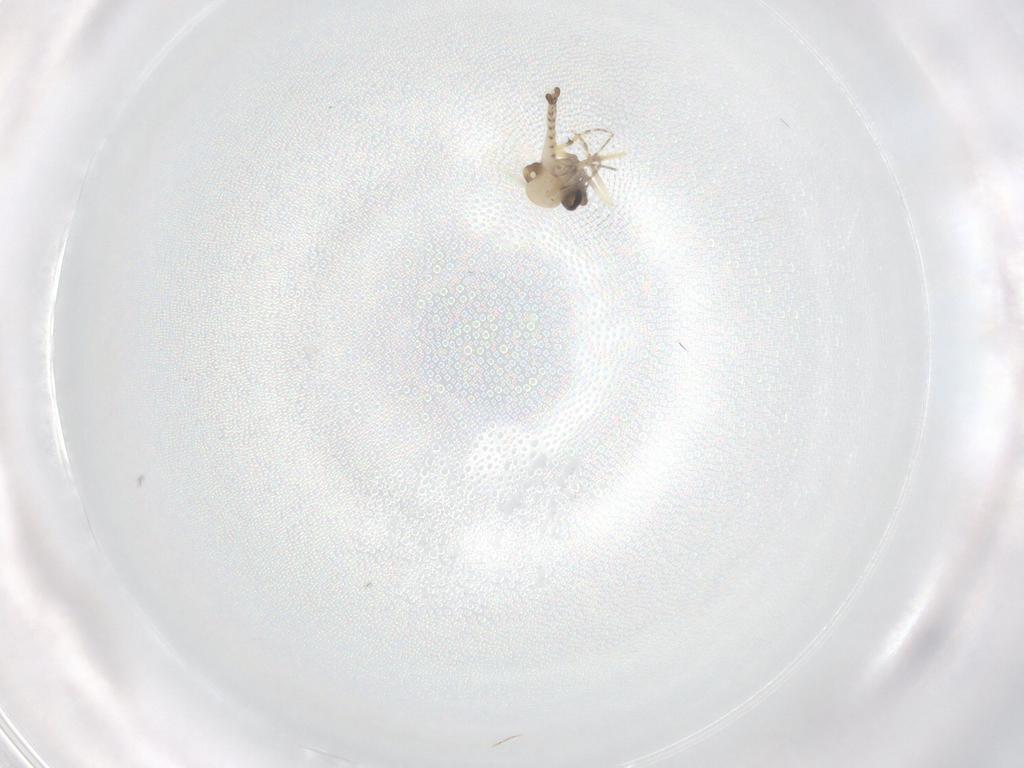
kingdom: Animalia
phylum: Arthropoda
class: Insecta
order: Diptera
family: Ceratopogonidae
